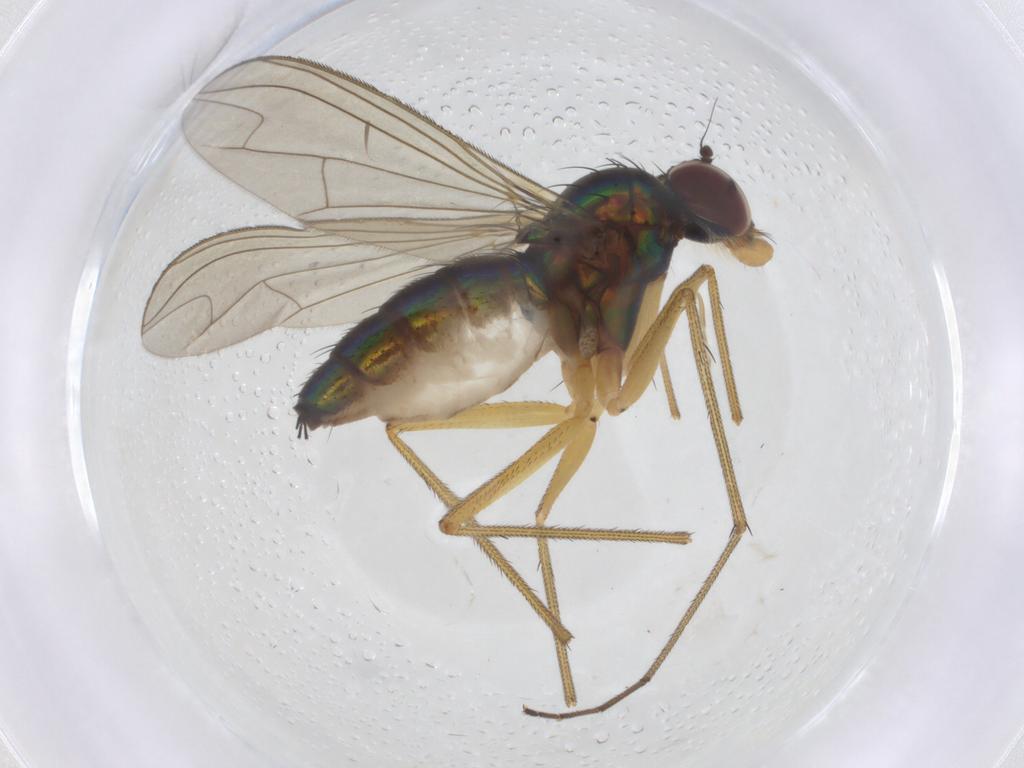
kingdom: Animalia
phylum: Arthropoda
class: Insecta
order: Diptera
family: Dolichopodidae
